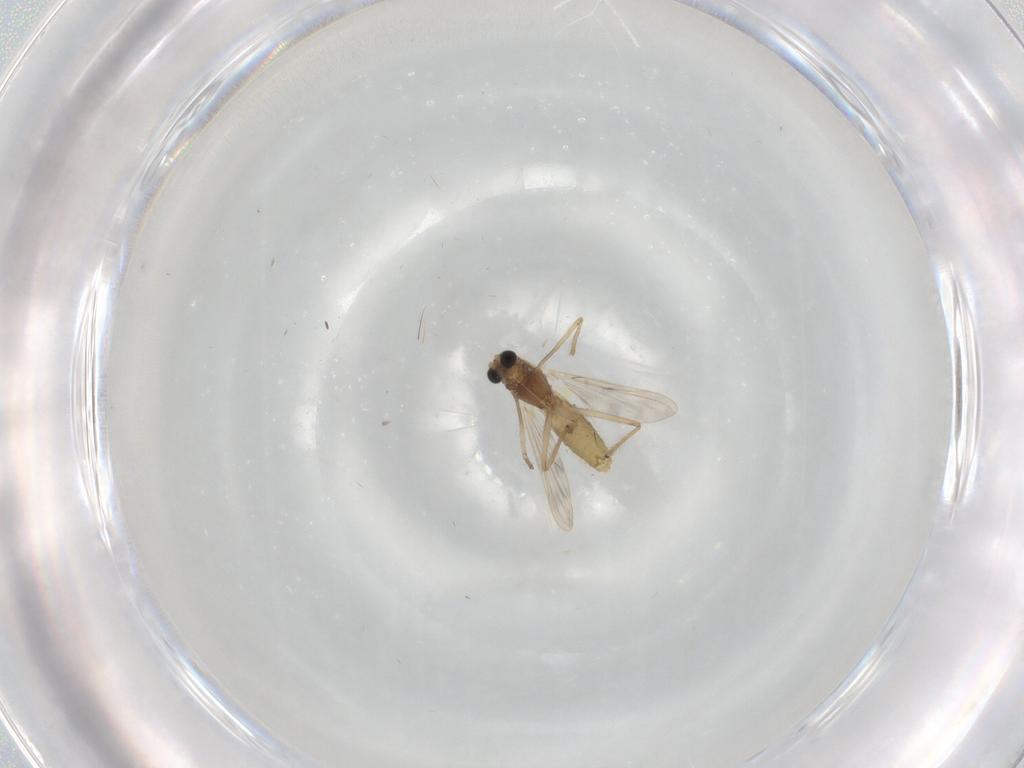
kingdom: Animalia
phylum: Arthropoda
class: Insecta
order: Diptera
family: Chironomidae
